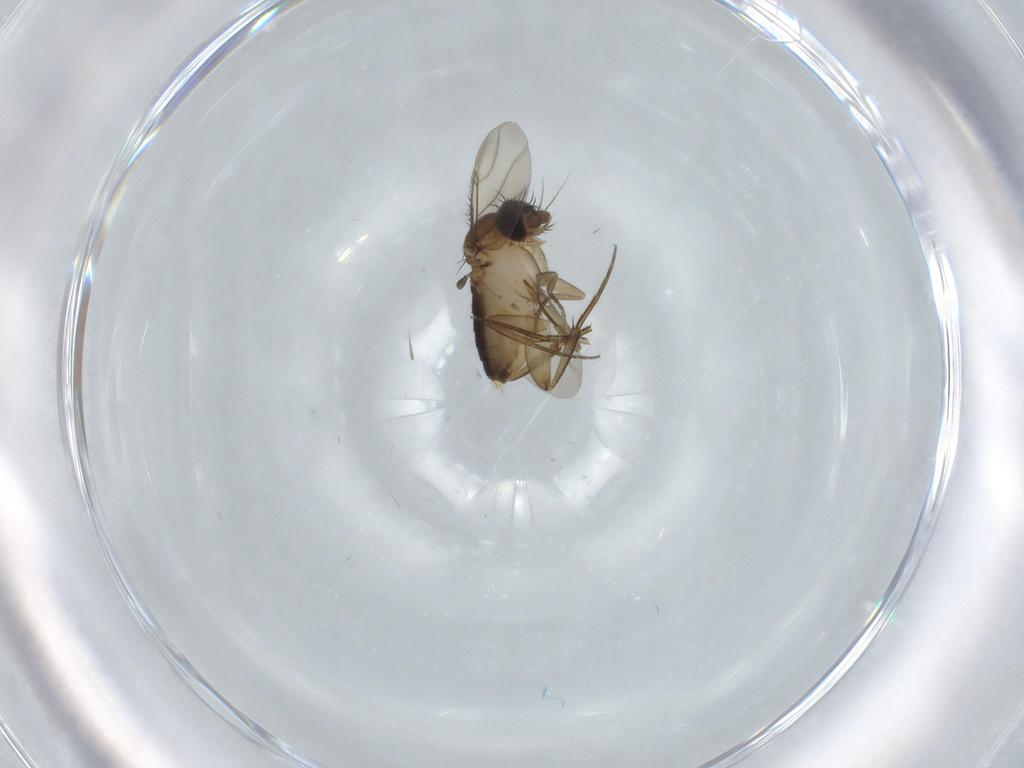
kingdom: Animalia
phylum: Arthropoda
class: Insecta
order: Diptera
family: Phoridae
